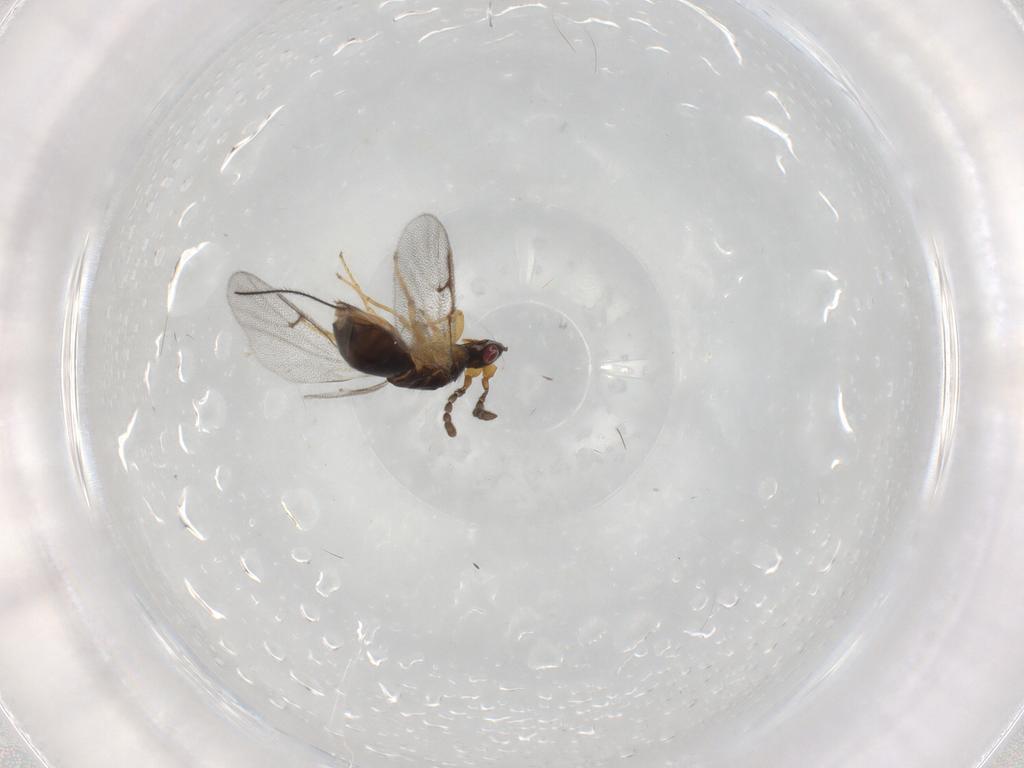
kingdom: Animalia
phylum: Arthropoda
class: Insecta
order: Hymenoptera
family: Agaonidae
